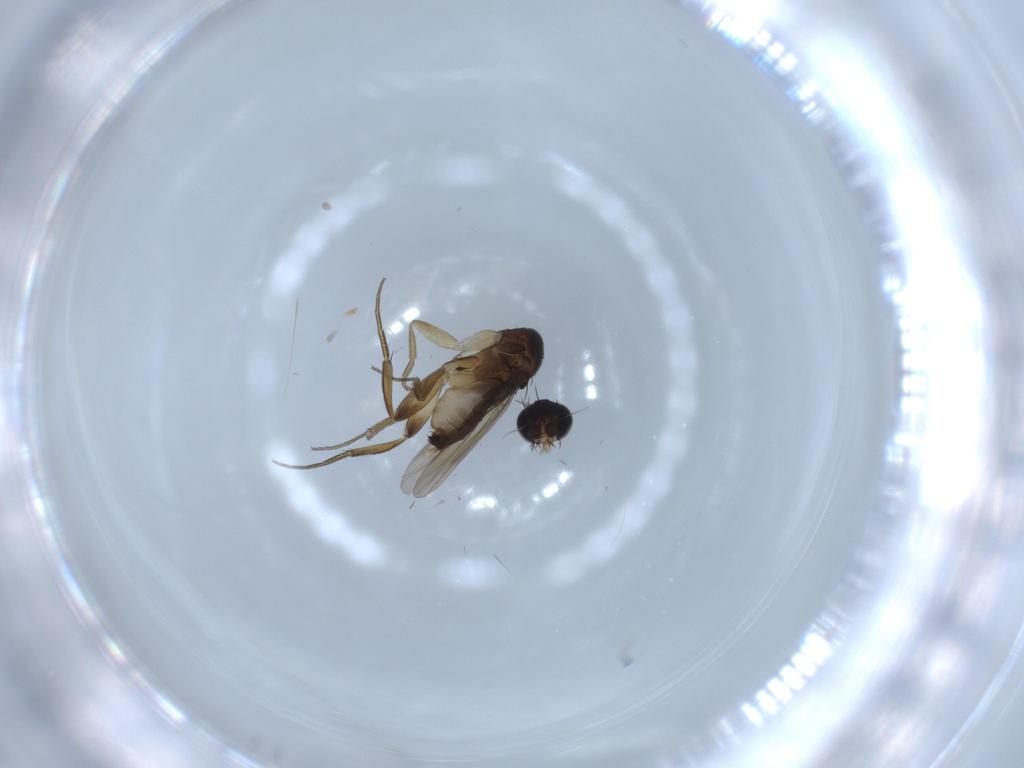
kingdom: Animalia
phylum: Arthropoda
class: Insecta
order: Diptera
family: Phoridae
